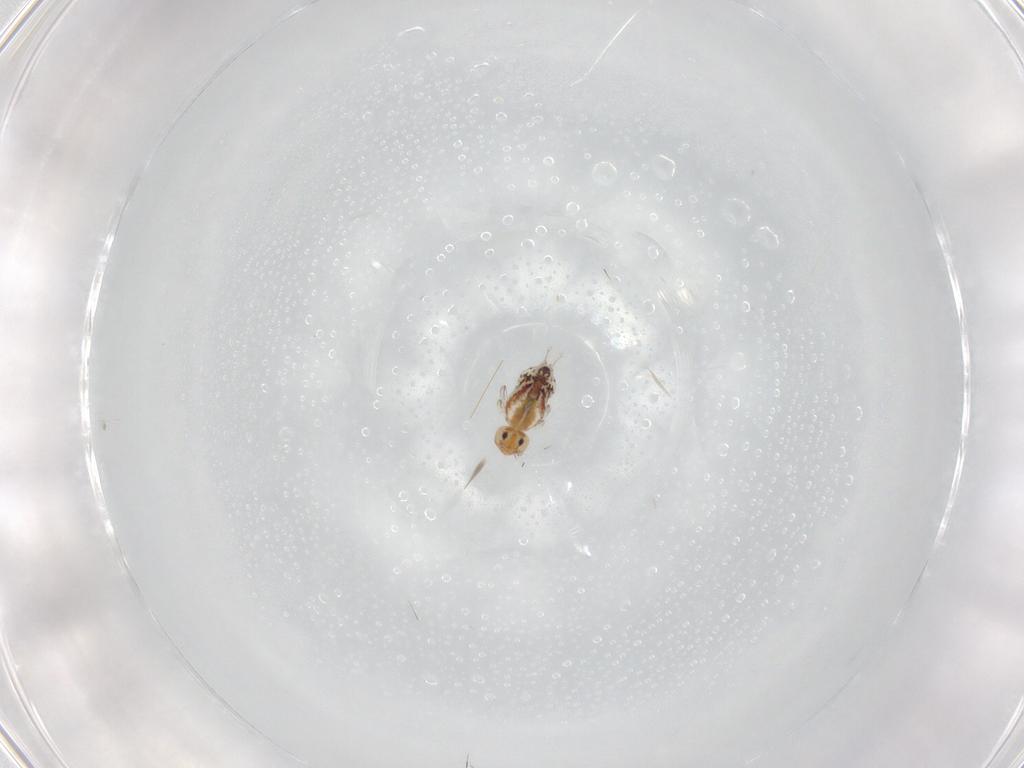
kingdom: Animalia
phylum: Arthropoda
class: Collembola
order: Symphypleona
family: Bourletiellidae
